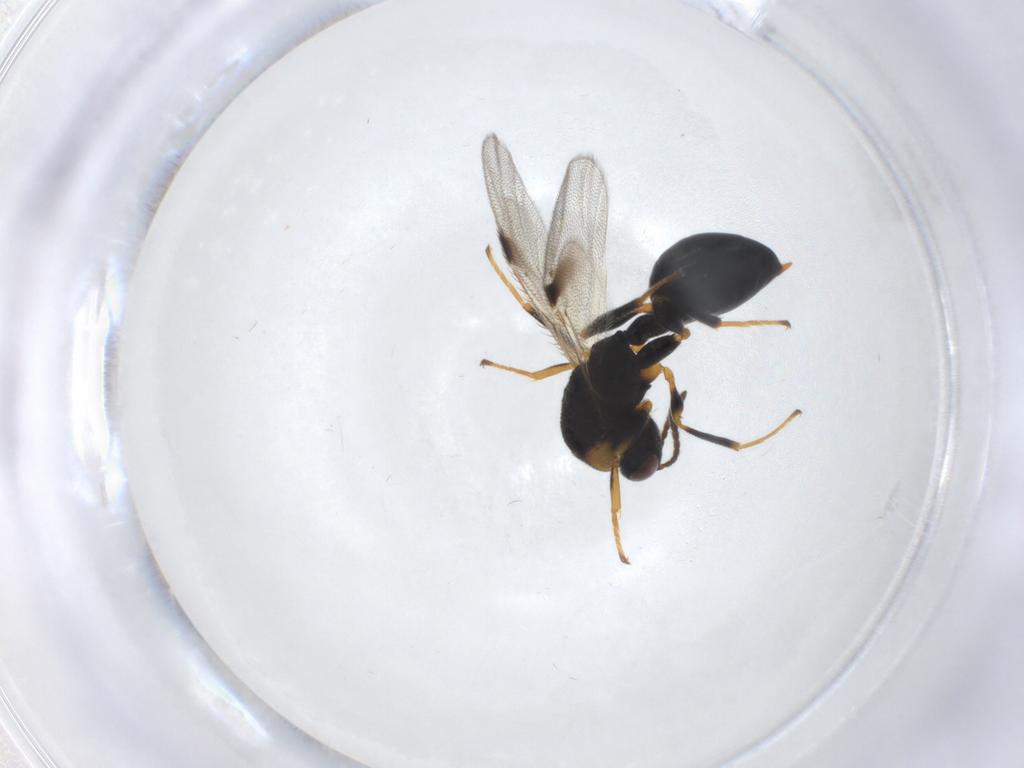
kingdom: Animalia
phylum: Arthropoda
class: Insecta
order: Hymenoptera
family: Eurytomidae
